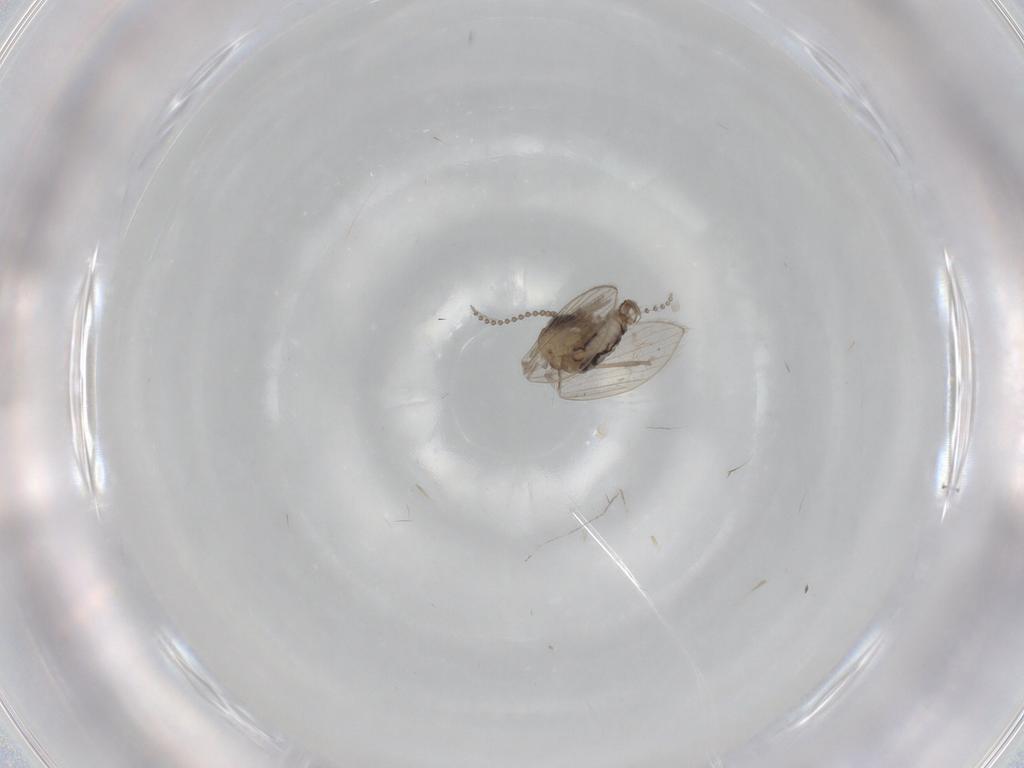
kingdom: Animalia
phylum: Arthropoda
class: Insecta
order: Diptera
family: Psychodidae
